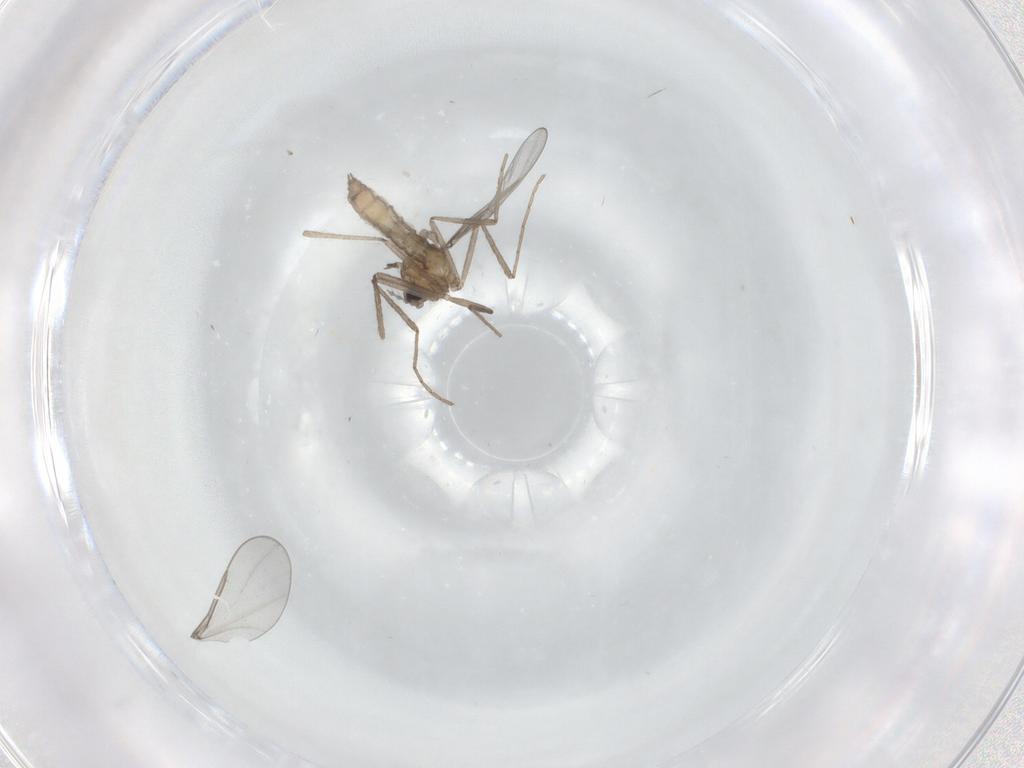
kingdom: Animalia
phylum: Arthropoda
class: Insecta
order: Diptera
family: Cecidomyiidae
